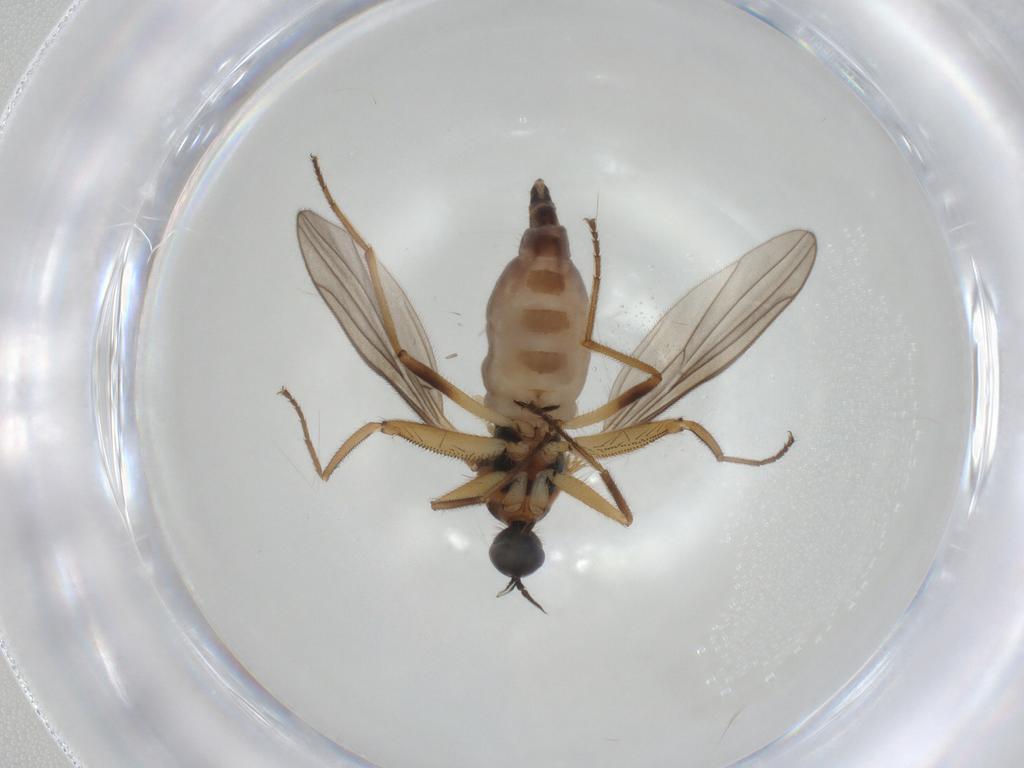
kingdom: Animalia
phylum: Arthropoda
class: Insecta
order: Diptera
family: Hybotidae
